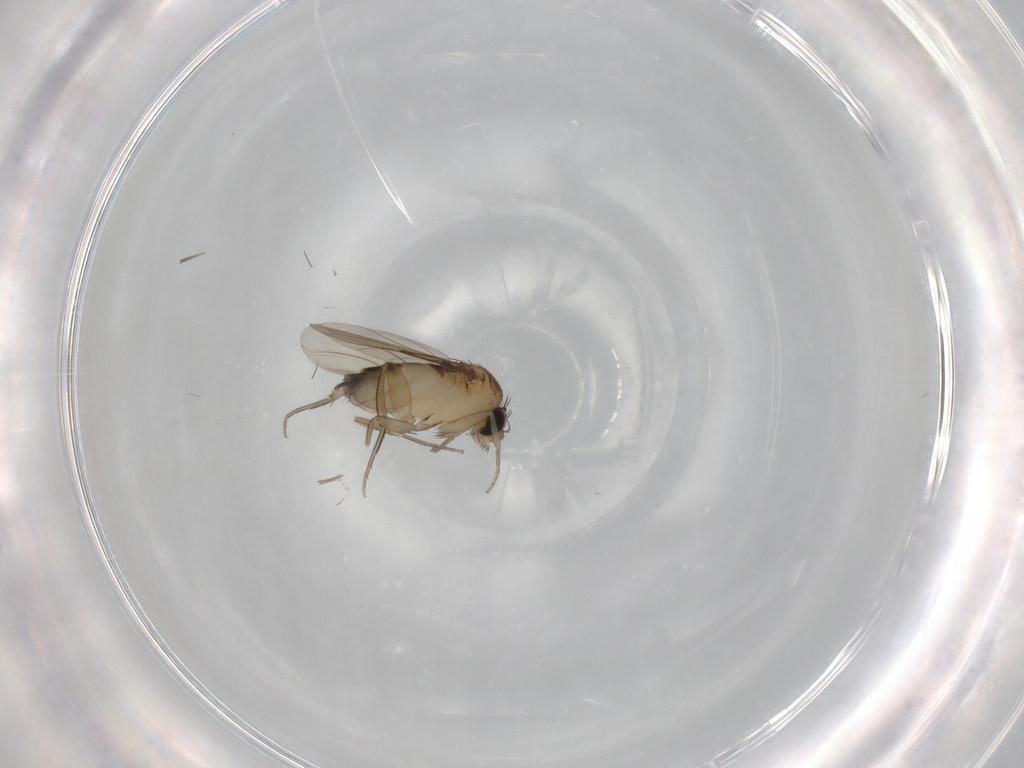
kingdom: Animalia
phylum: Arthropoda
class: Insecta
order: Diptera
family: Phoridae
